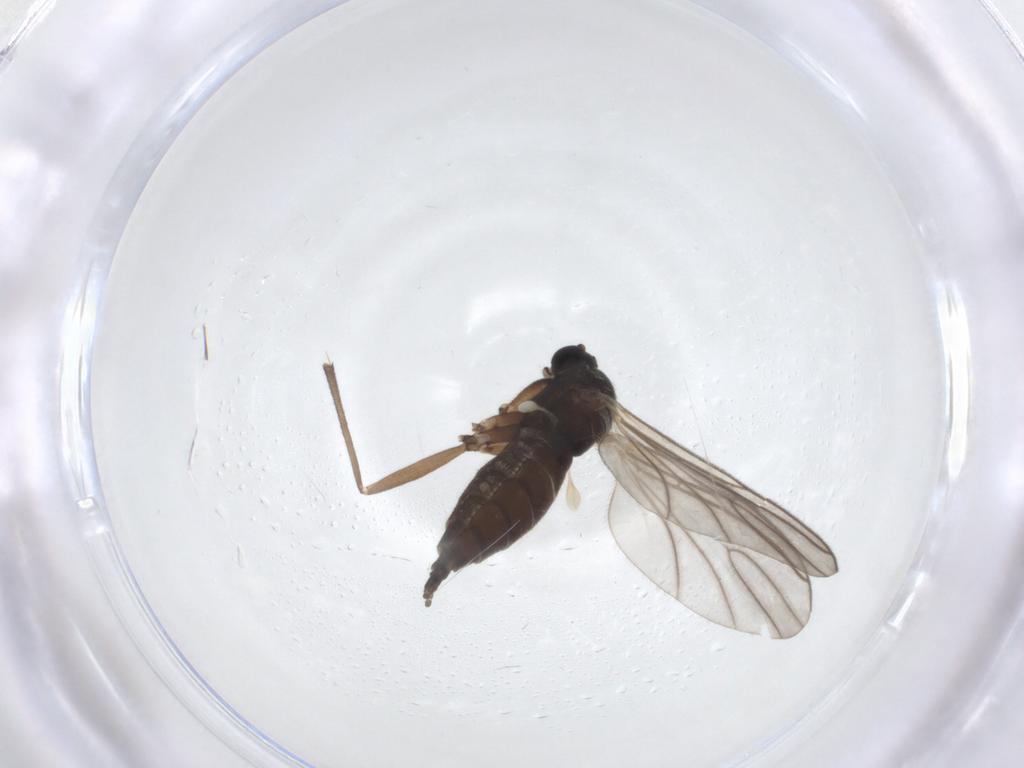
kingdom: Animalia
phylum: Arthropoda
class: Insecta
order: Diptera
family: Sciaridae
